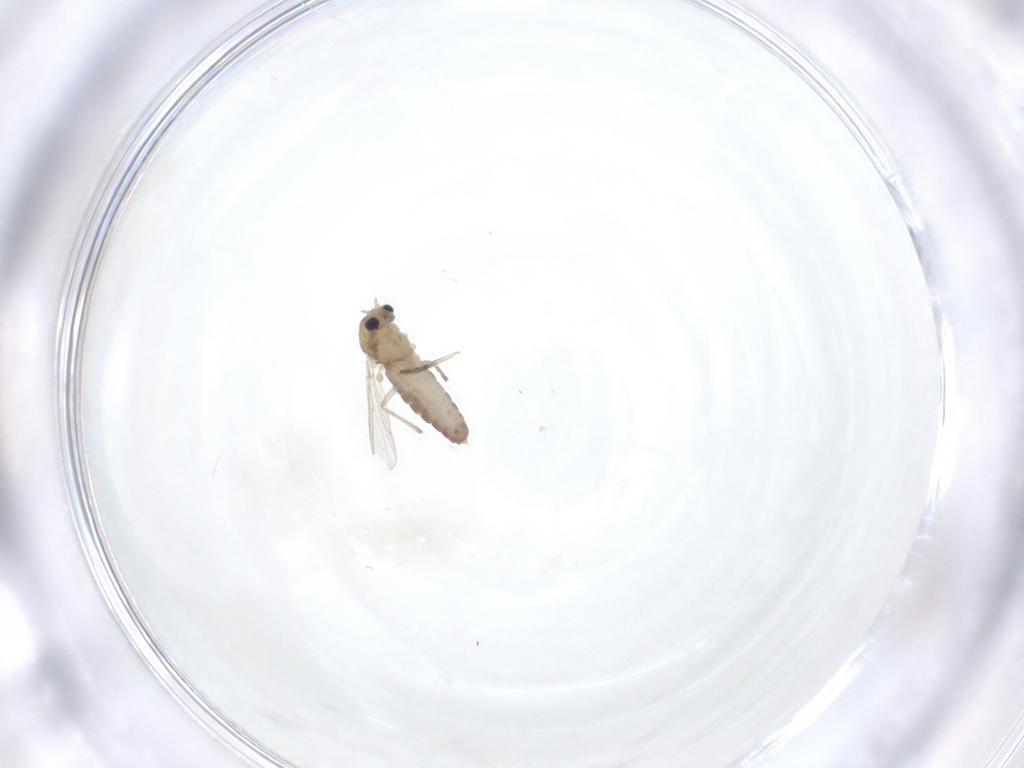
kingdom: Animalia
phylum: Arthropoda
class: Insecta
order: Diptera
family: Chironomidae
